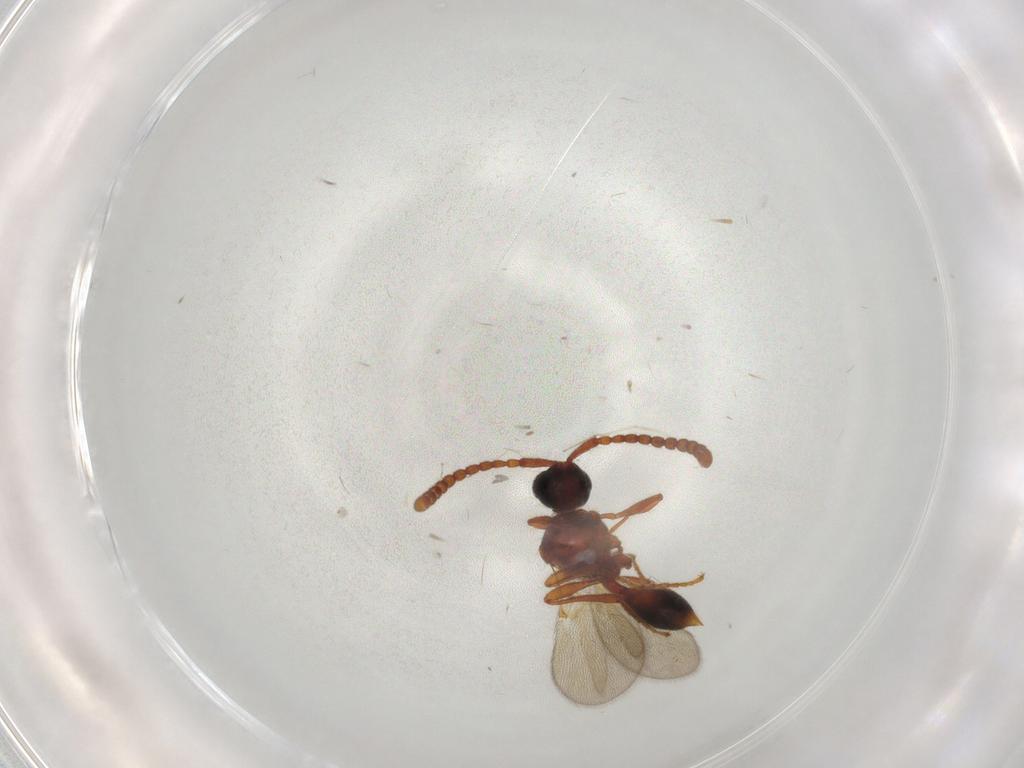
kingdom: Animalia
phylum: Arthropoda
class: Insecta
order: Hymenoptera
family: Diapriidae
